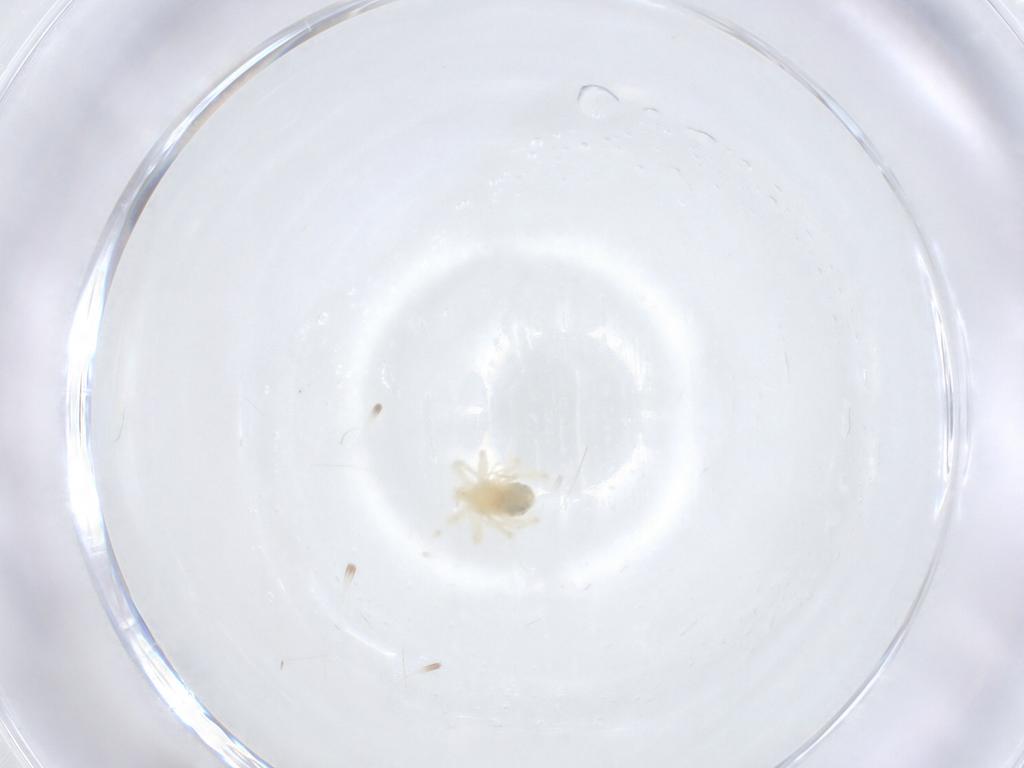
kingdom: Animalia
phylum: Arthropoda
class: Arachnida
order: Trombidiformes
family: Anystidae
